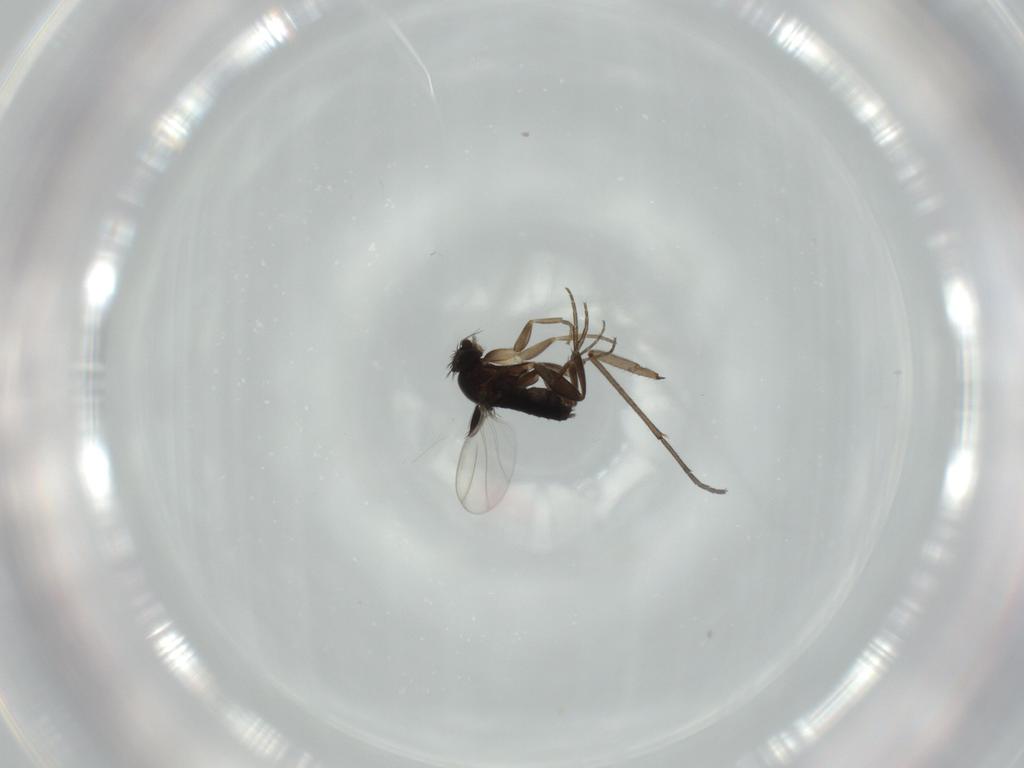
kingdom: Animalia
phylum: Arthropoda
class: Insecta
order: Diptera
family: Phoridae
